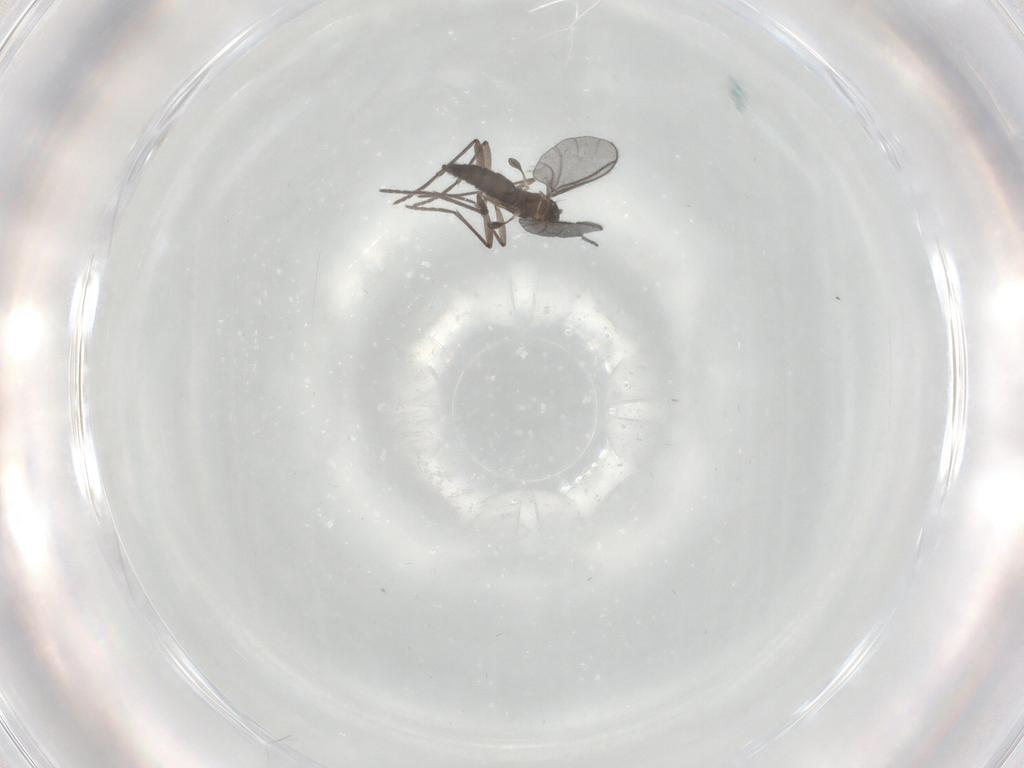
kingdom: Animalia
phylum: Arthropoda
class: Insecta
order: Diptera
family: Chironomidae
